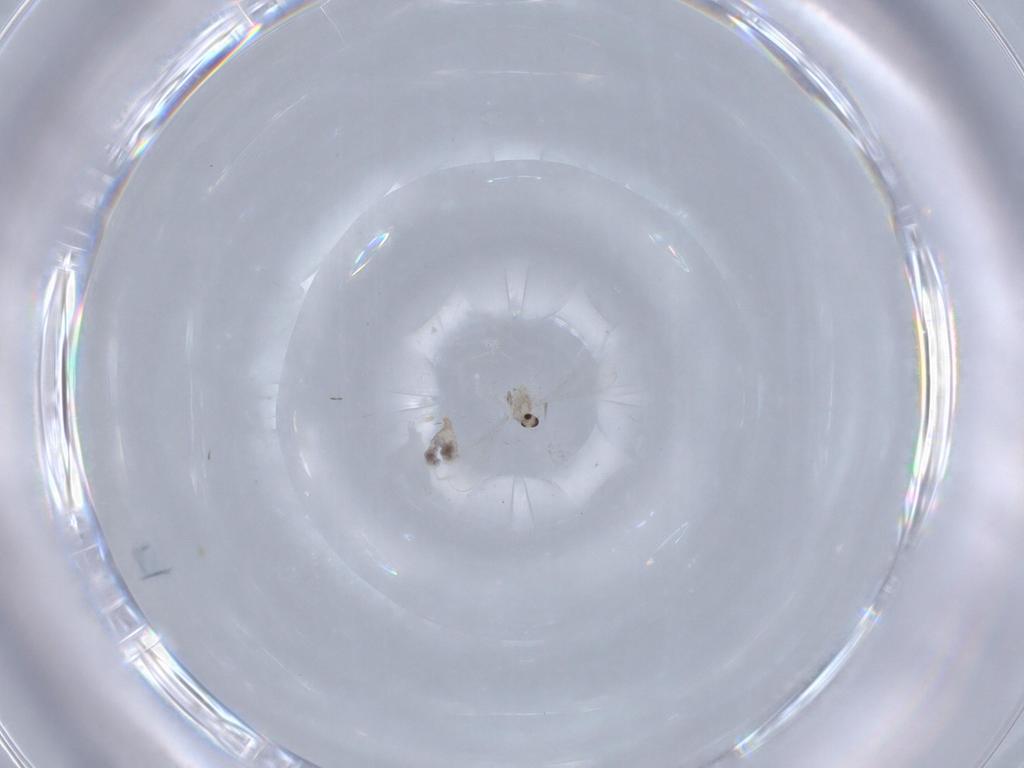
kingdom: Animalia
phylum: Arthropoda
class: Insecta
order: Diptera
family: Cecidomyiidae
